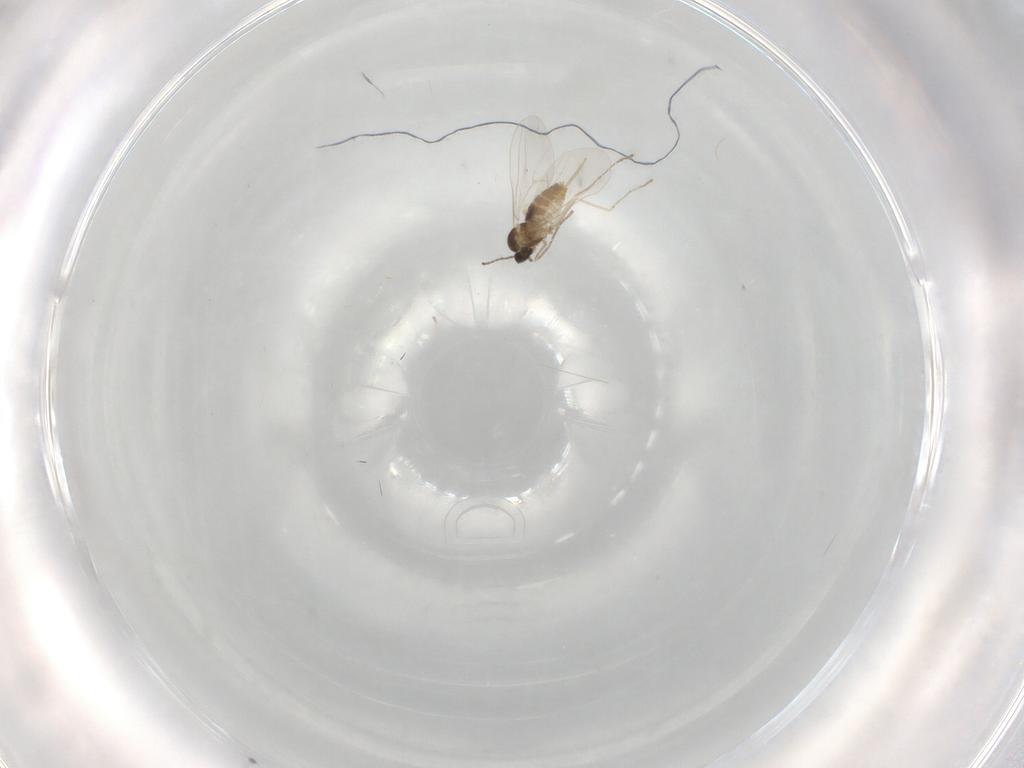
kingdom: Animalia
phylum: Arthropoda
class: Insecta
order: Diptera
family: Cecidomyiidae
